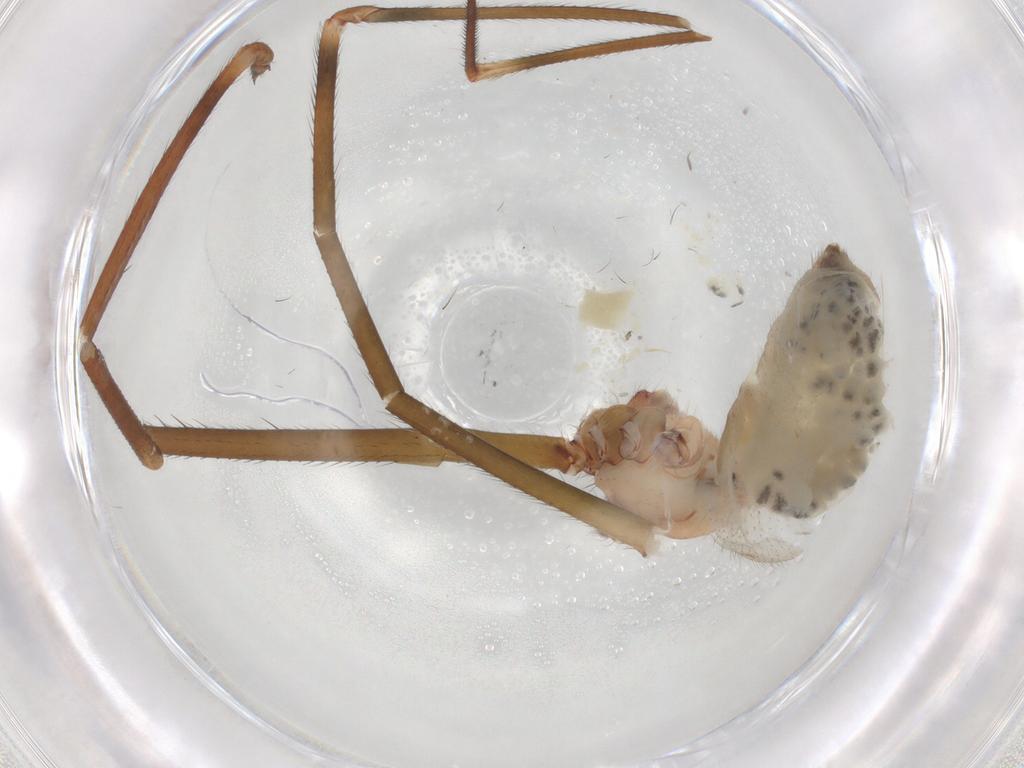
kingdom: Animalia
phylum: Arthropoda
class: Arachnida
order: Araneae
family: Pholcidae
